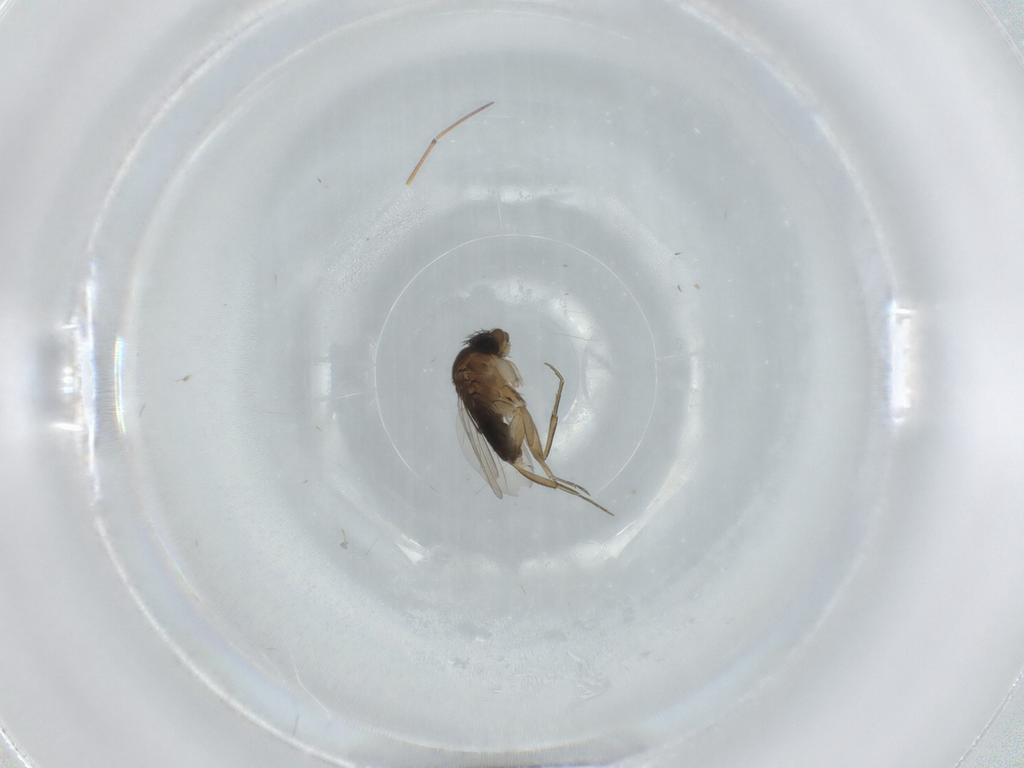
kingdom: Animalia
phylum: Arthropoda
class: Insecta
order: Diptera
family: Phoridae
